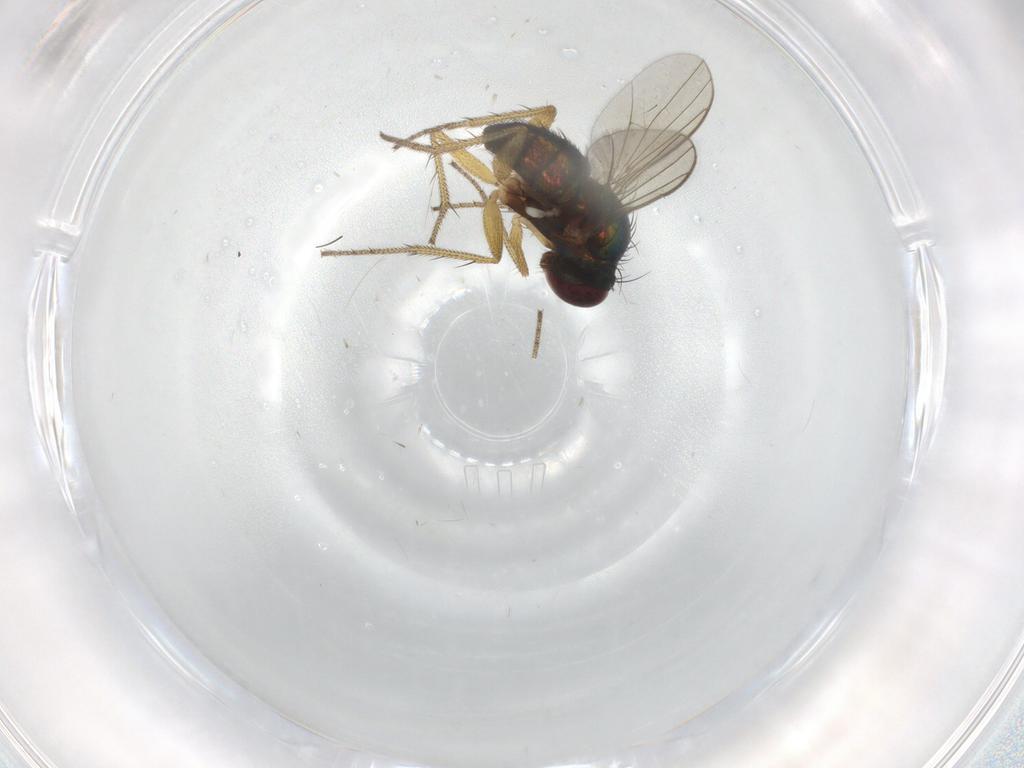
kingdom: Animalia
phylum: Arthropoda
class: Insecta
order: Diptera
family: Dolichopodidae
